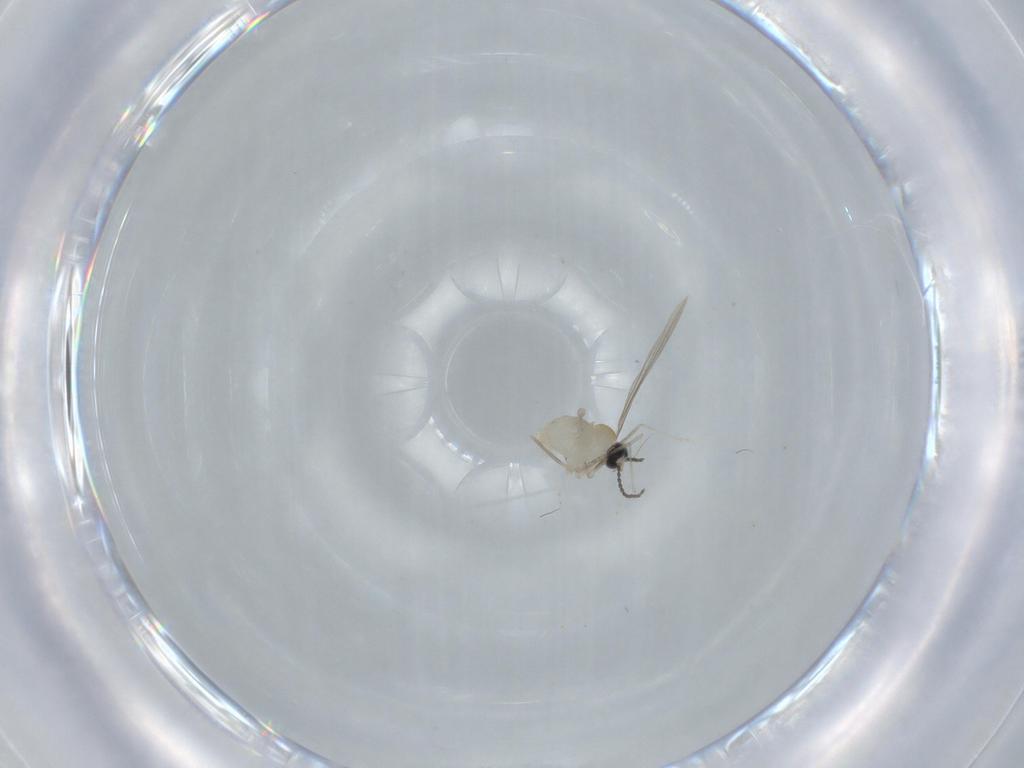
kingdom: Animalia
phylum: Arthropoda
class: Insecta
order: Diptera
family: Cecidomyiidae
